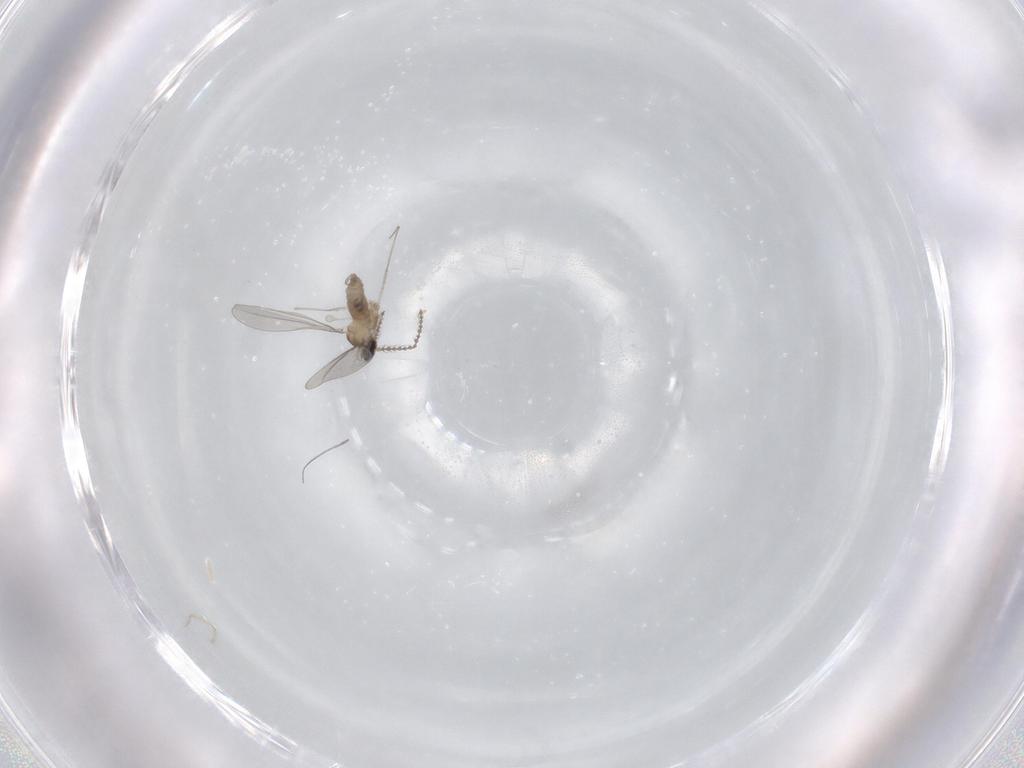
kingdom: Animalia
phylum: Arthropoda
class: Insecta
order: Diptera
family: Cecidomyiidae
